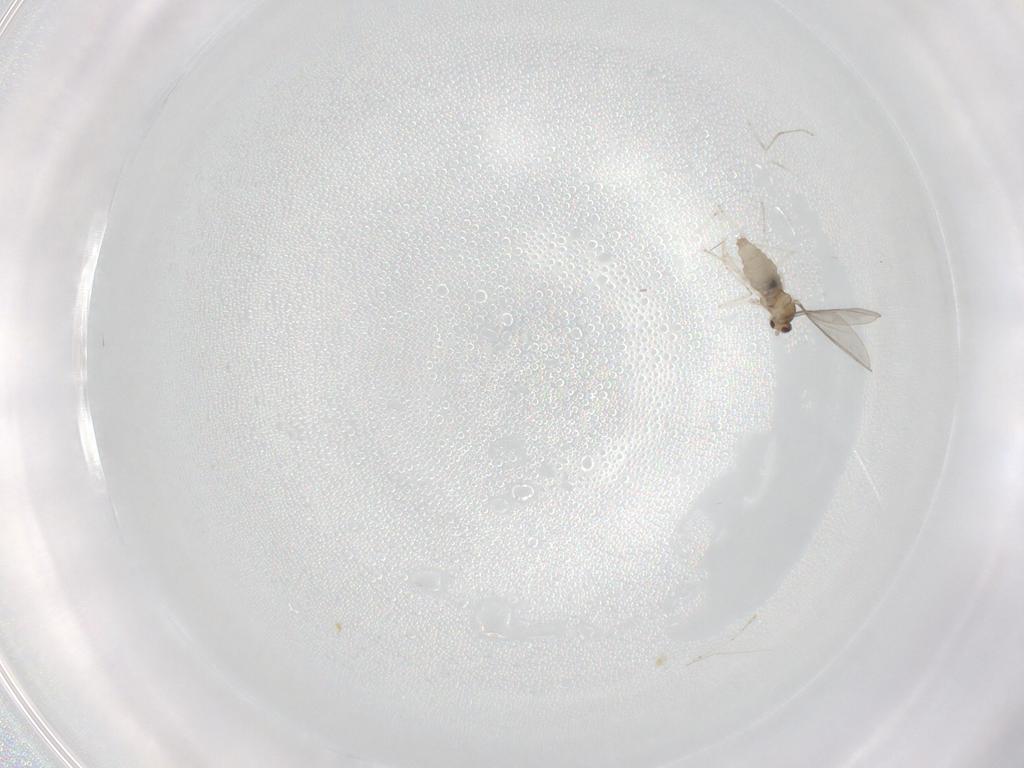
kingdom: Animalia
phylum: Arthropoda
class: Insecta
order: Diptera
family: Cecidomyiidae
